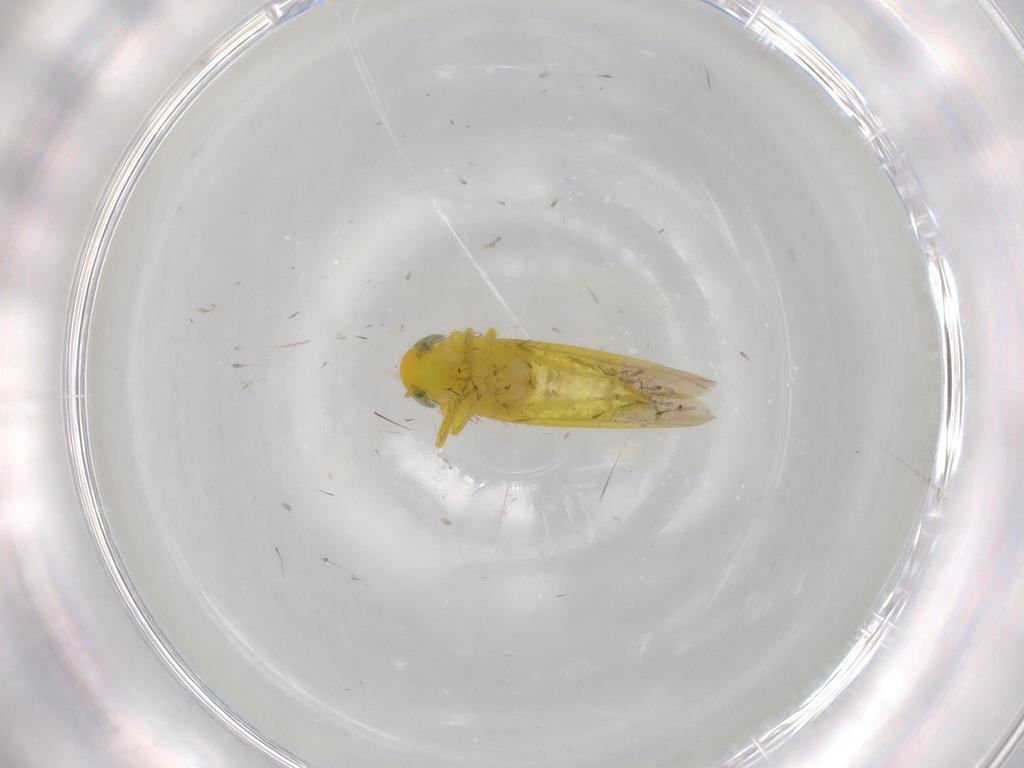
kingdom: Animalia
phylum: Arthropoda
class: Insecta
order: Hemiptera
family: Cicadellidae
